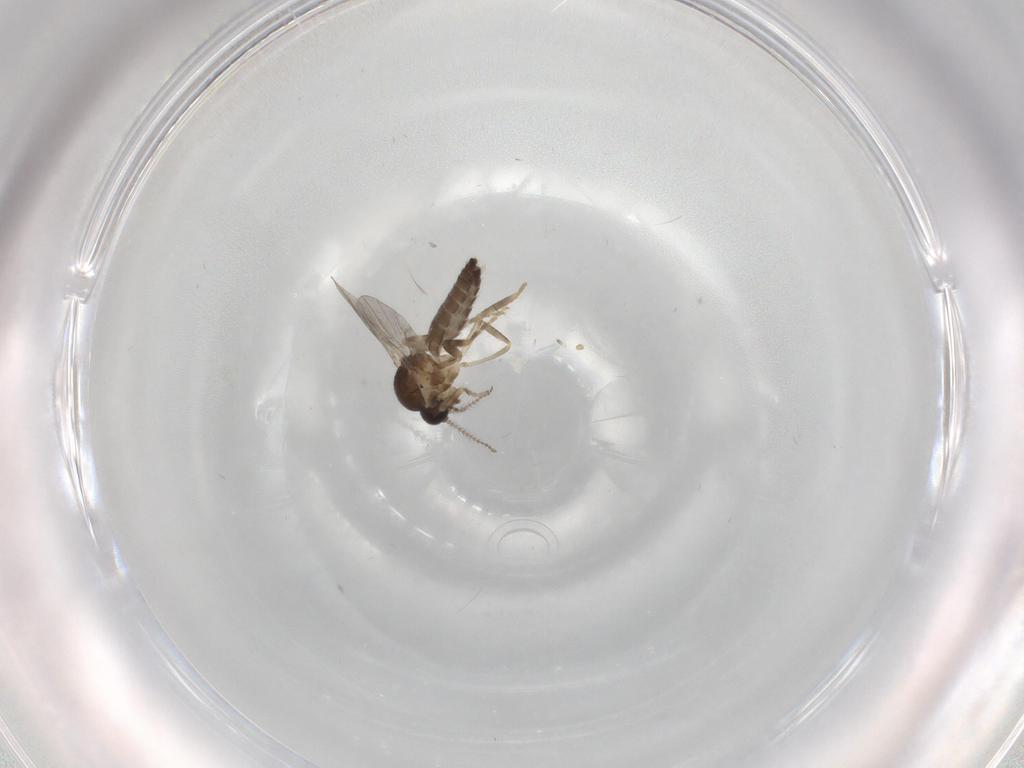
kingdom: Animalia
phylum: Arthropoda
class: Insecta
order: Diptera
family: Ceratopogonidae
